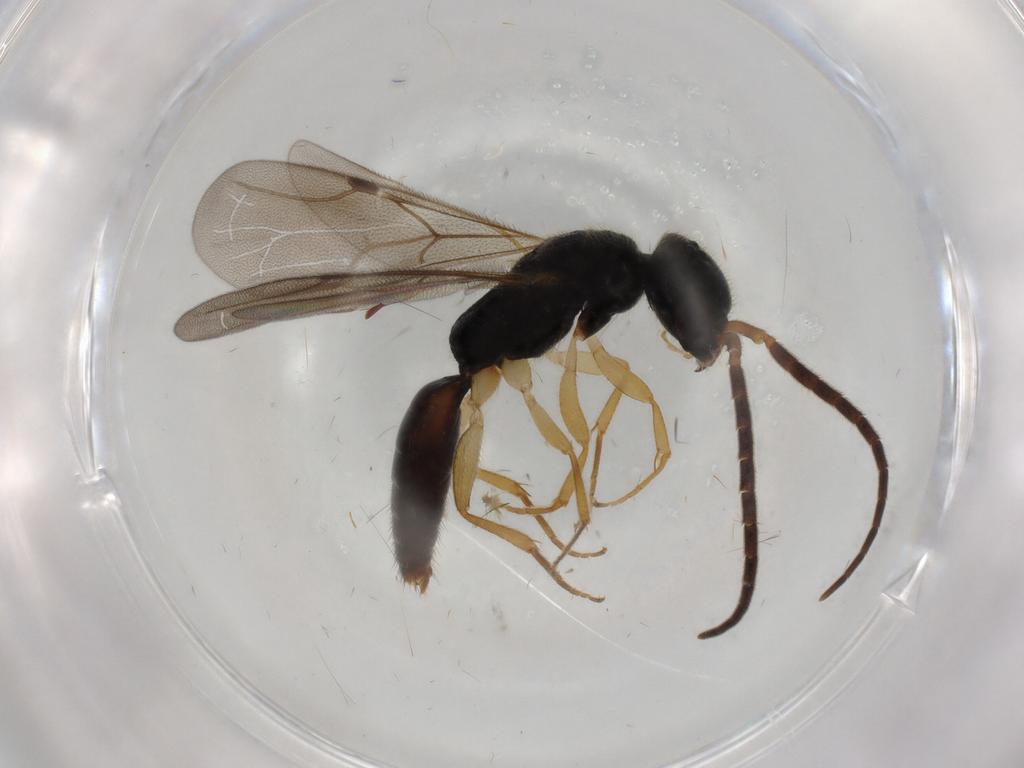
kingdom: Animalia
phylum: Arthropoda
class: Insecta
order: Hymenoptera
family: Bethylidae
